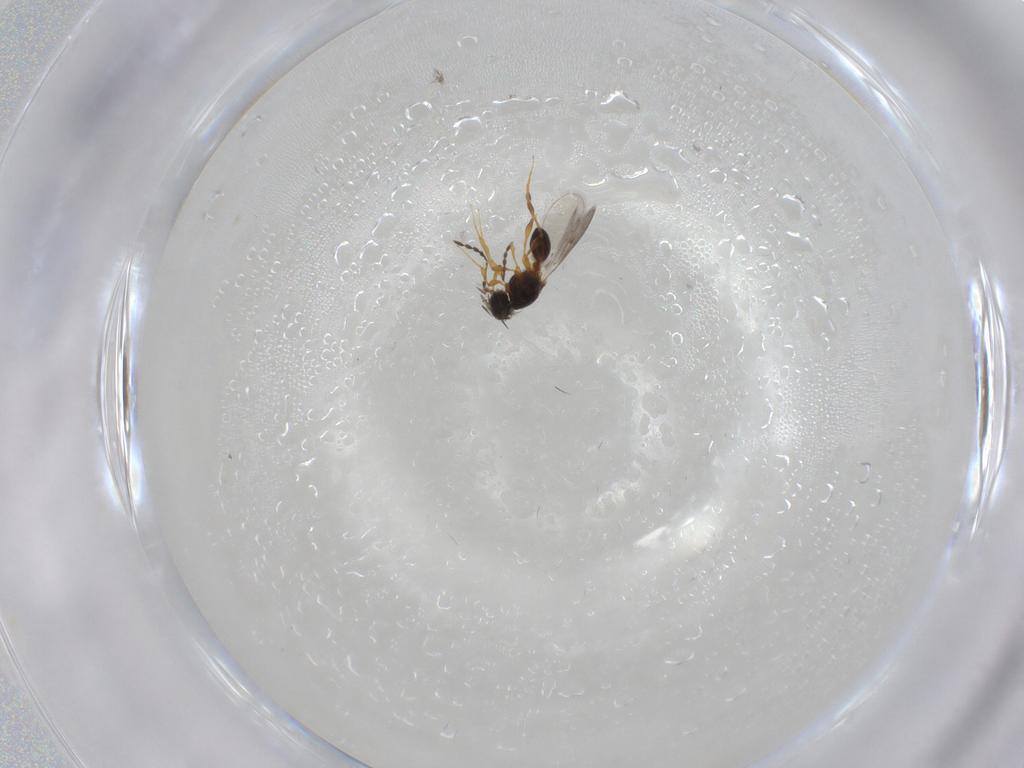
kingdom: Animalia
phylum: Arthropoda
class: Insecta
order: Hymenoptera
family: Platygastridae
